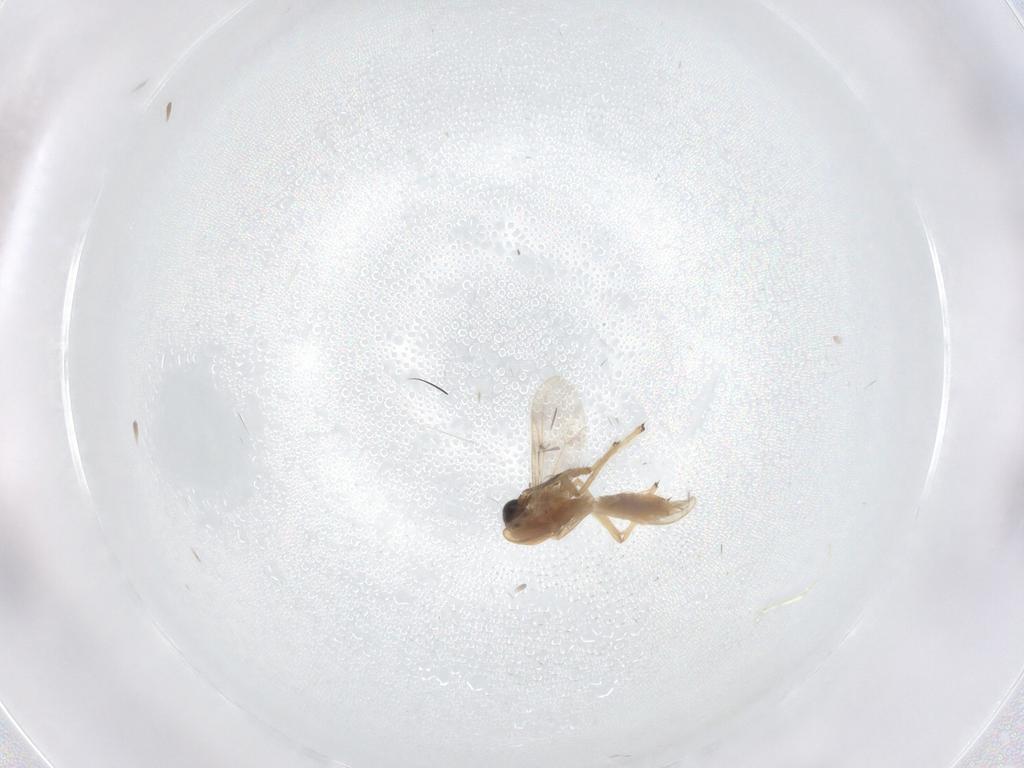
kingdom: Animalia
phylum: Arthropoda
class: Insecta
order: Diptera
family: Chironomidae
